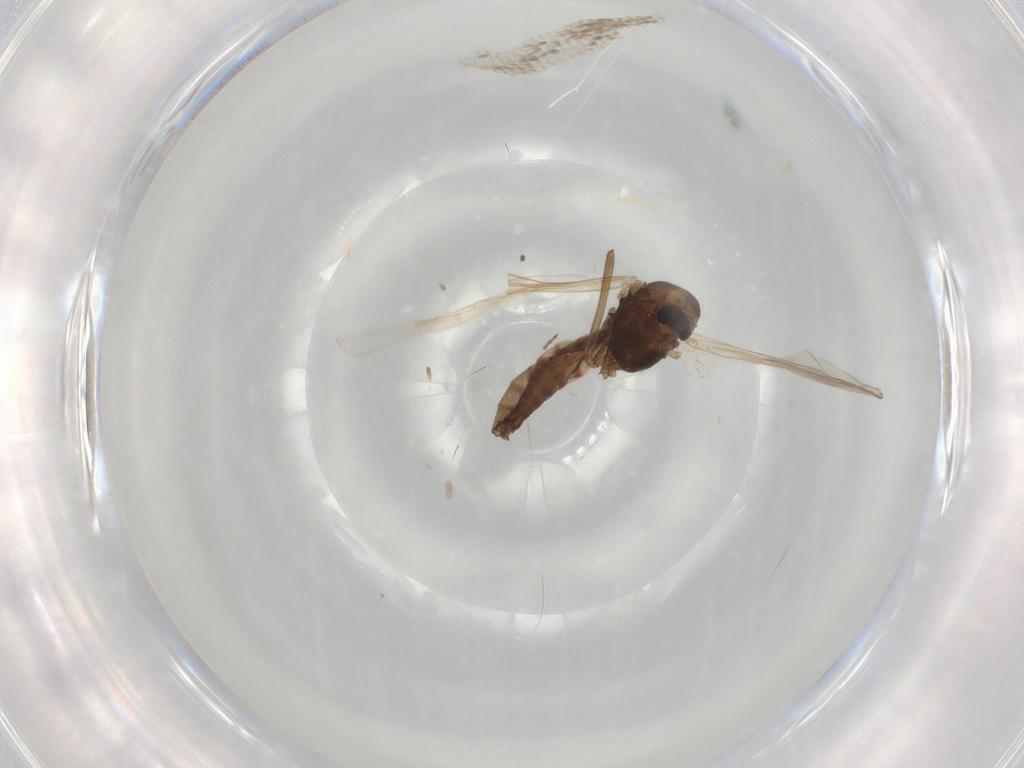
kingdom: Animalia
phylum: Arthropoda
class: Insecta
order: Diptera
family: Chironomidae
